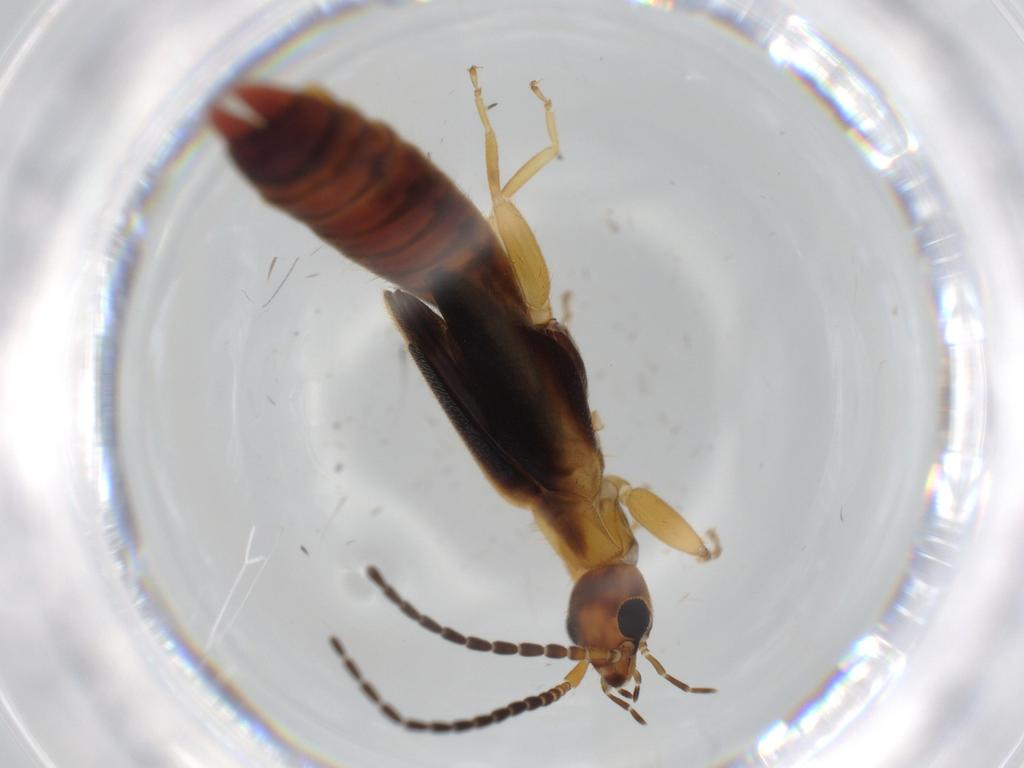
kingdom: Animalia
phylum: Arthropoda
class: Insecta
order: Dermaptera
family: Forficulidae
